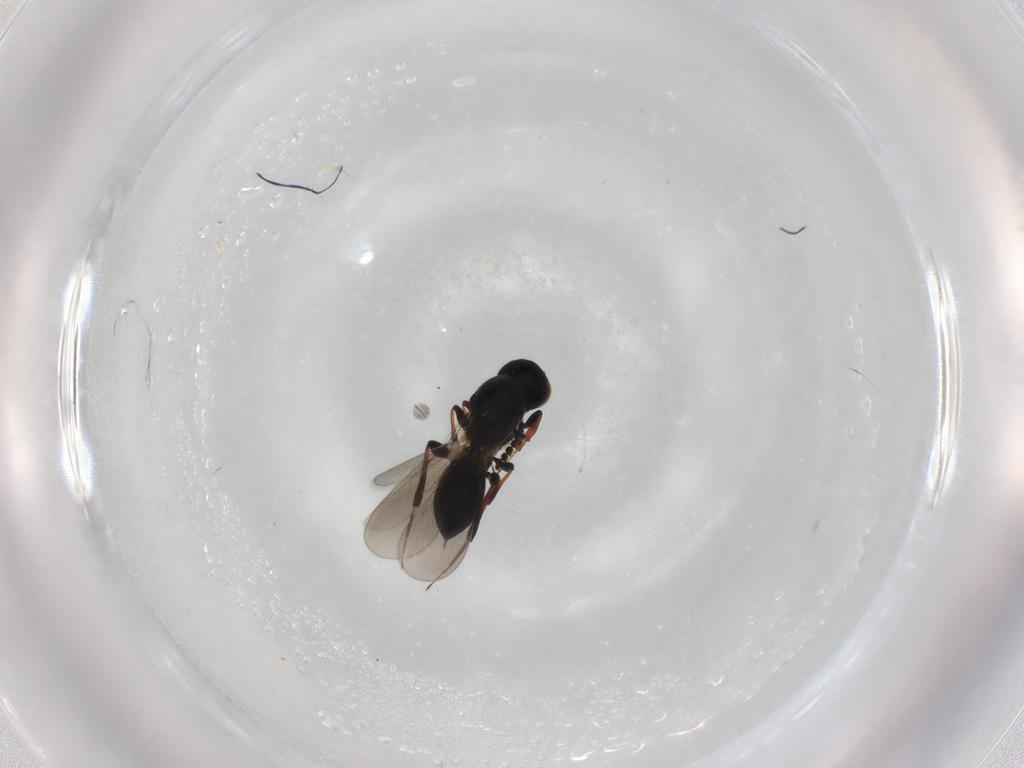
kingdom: Animalia
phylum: Arthropoda
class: Insecta
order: Hymenoptera
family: Platygastridae
